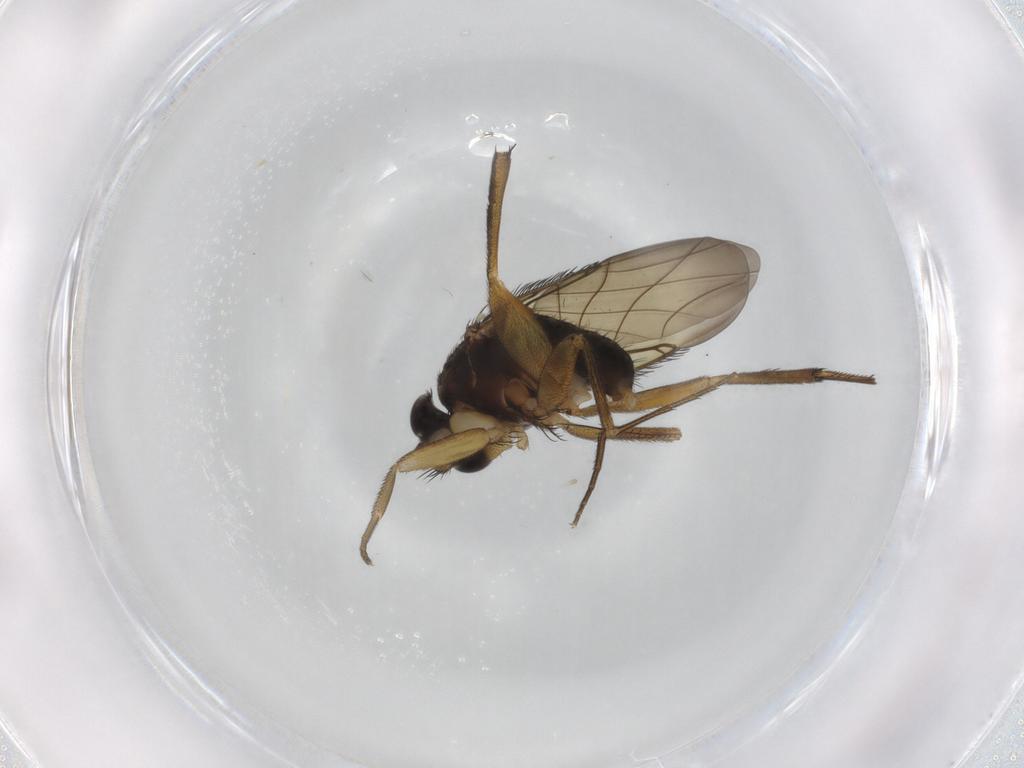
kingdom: Animalia
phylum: Arthropoda
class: Insecta
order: Diptera
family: Phoridae
